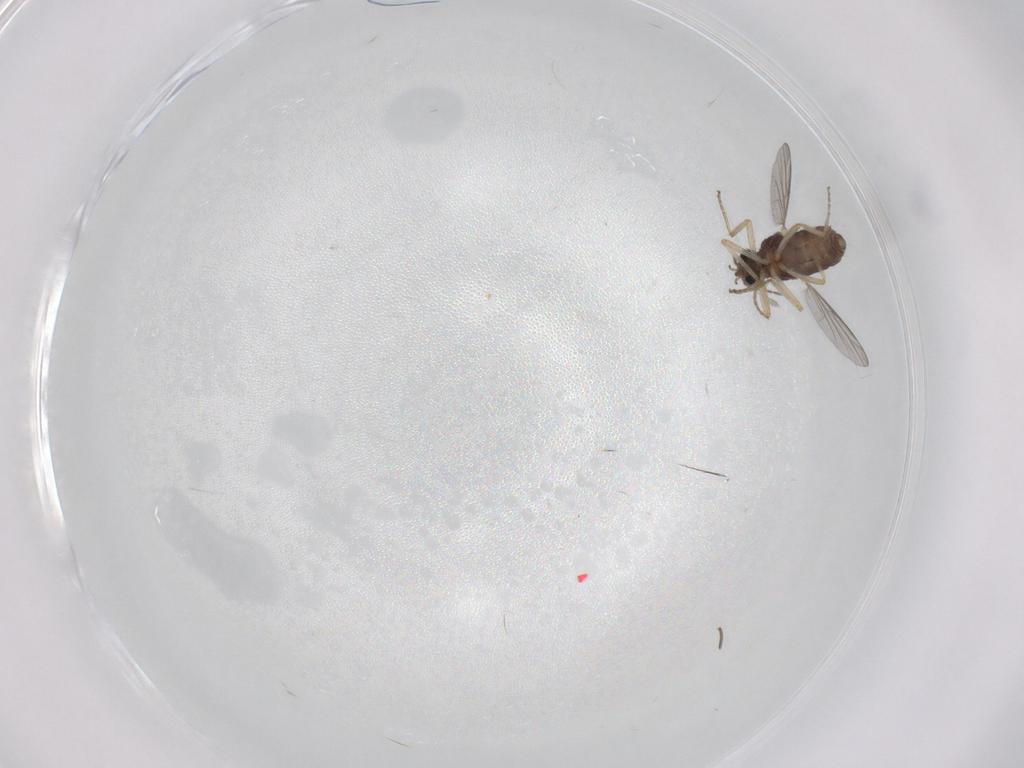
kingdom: Animalia
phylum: Arthropoda
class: Insecta
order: Diptera
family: Ceratopogonidae
